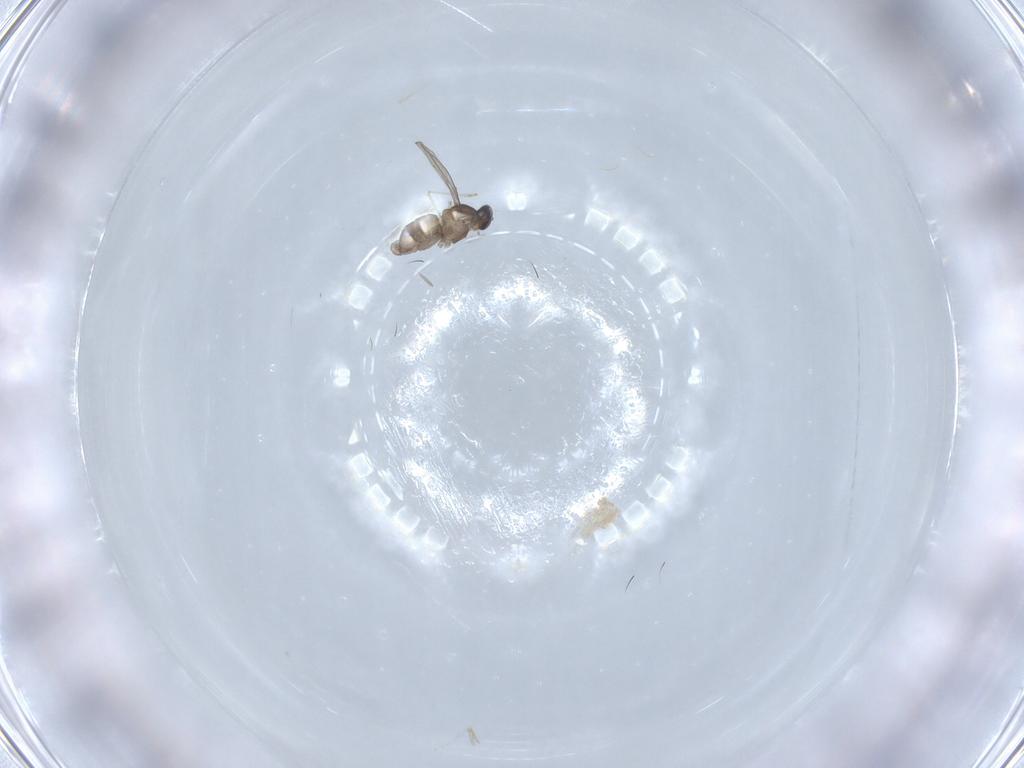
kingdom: Animalia
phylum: Arthropoda
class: Insecta
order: Diptera
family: Cecidomyiidae
